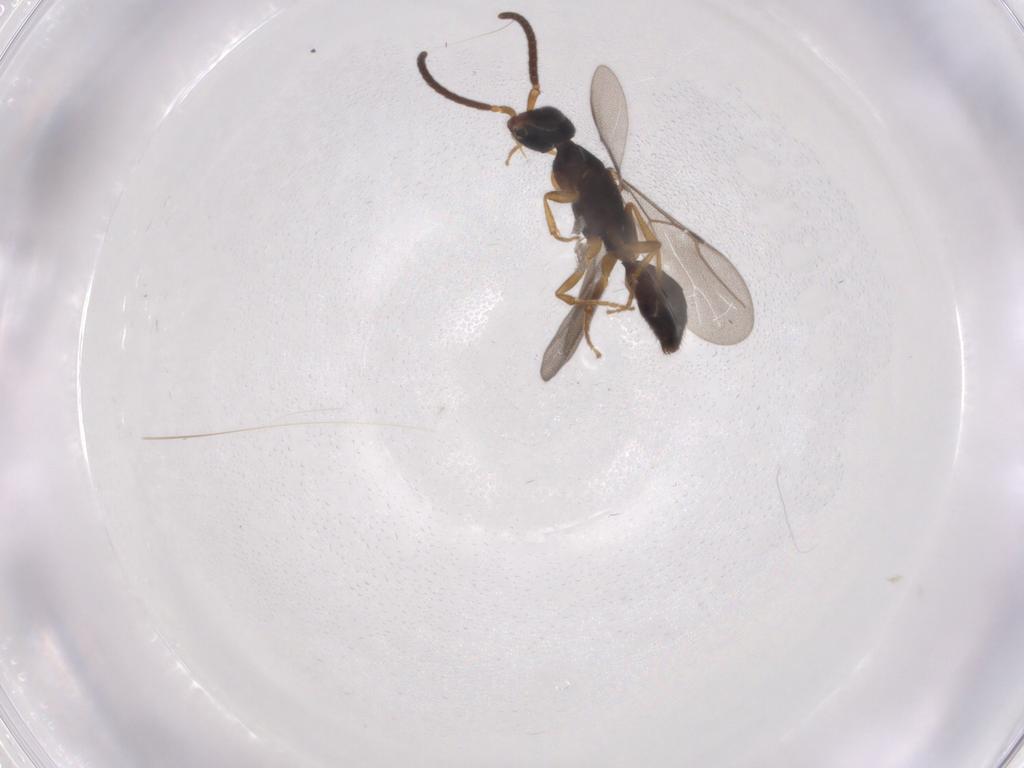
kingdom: Animalia
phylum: Arthropoda
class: Insecta
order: Hymenoptera
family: Bethylidae
